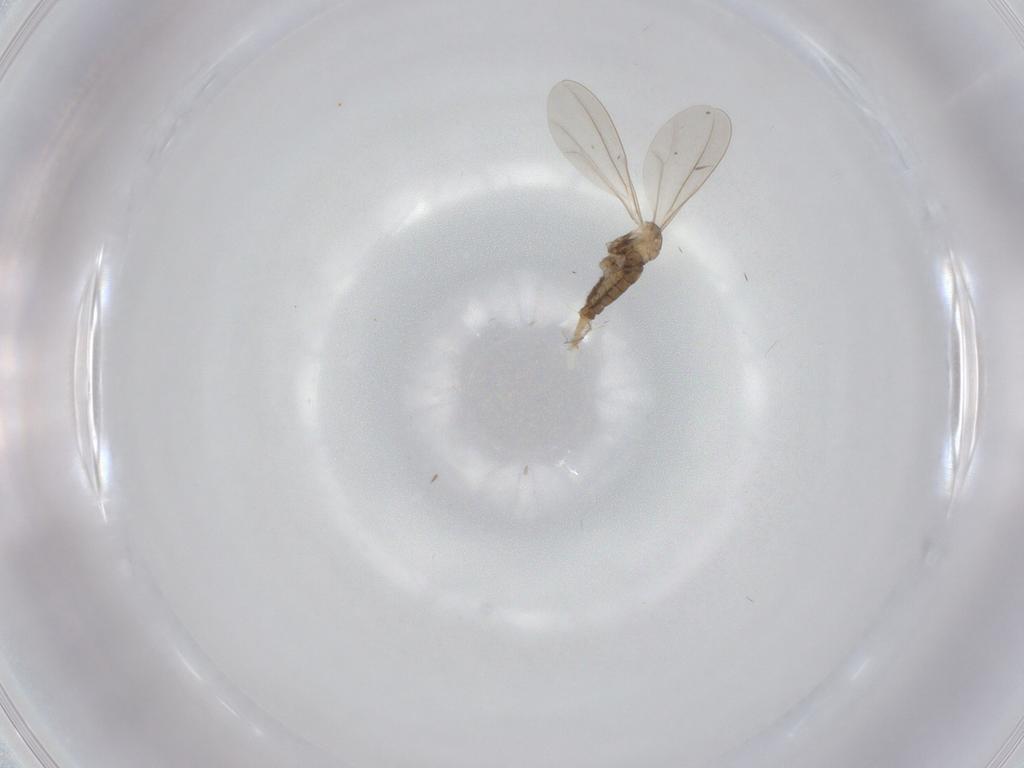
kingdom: Animalia
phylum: Arthropoda
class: Insecta
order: Diptera
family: Cecidomyiidae
